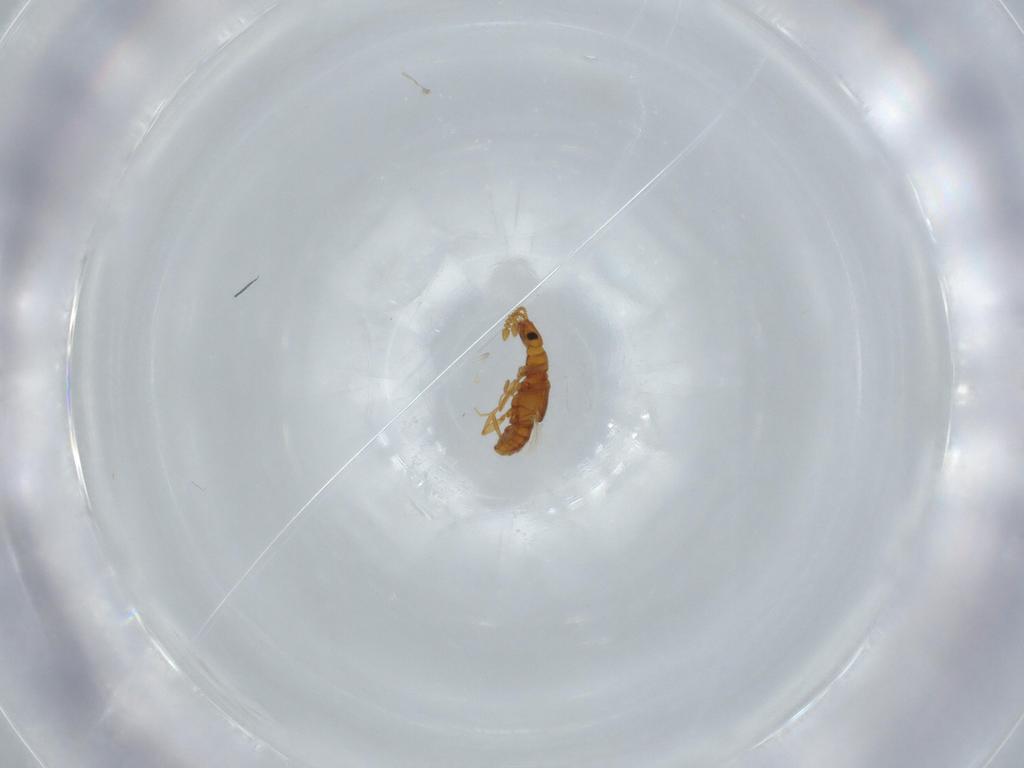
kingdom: Animalia
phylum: Arthropoda
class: Insecta
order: Coleoptera
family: Staphylinidae
